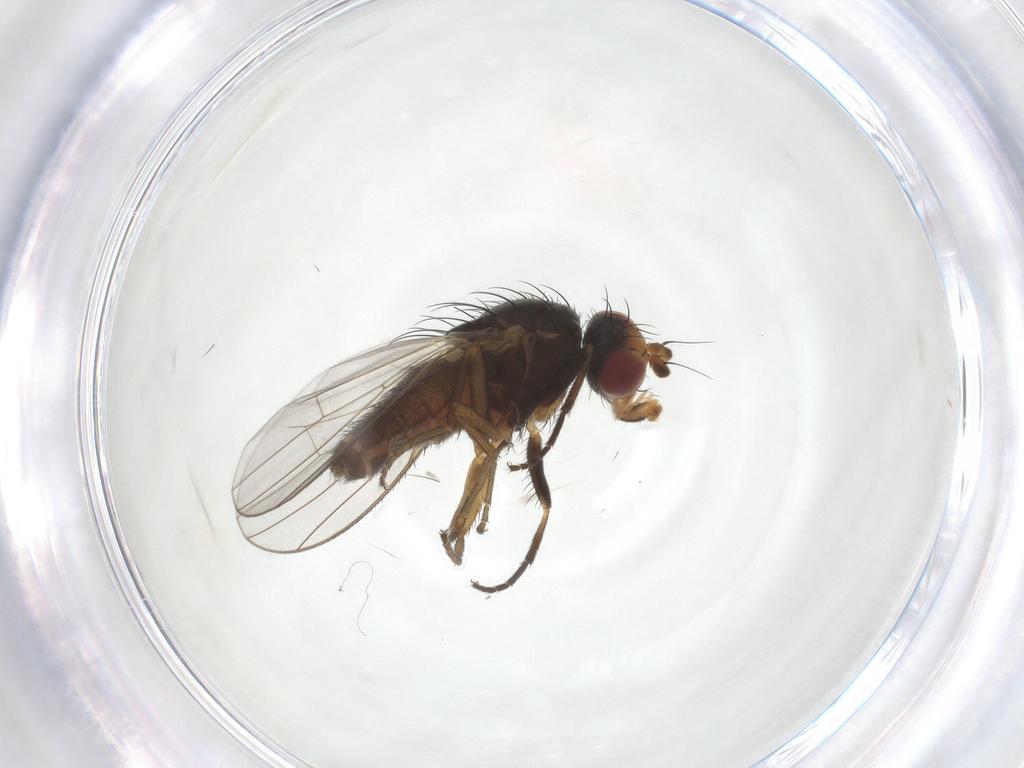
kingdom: Animalia
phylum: Arthropoda
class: Insecta
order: Diptera
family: Heleomyzidae
